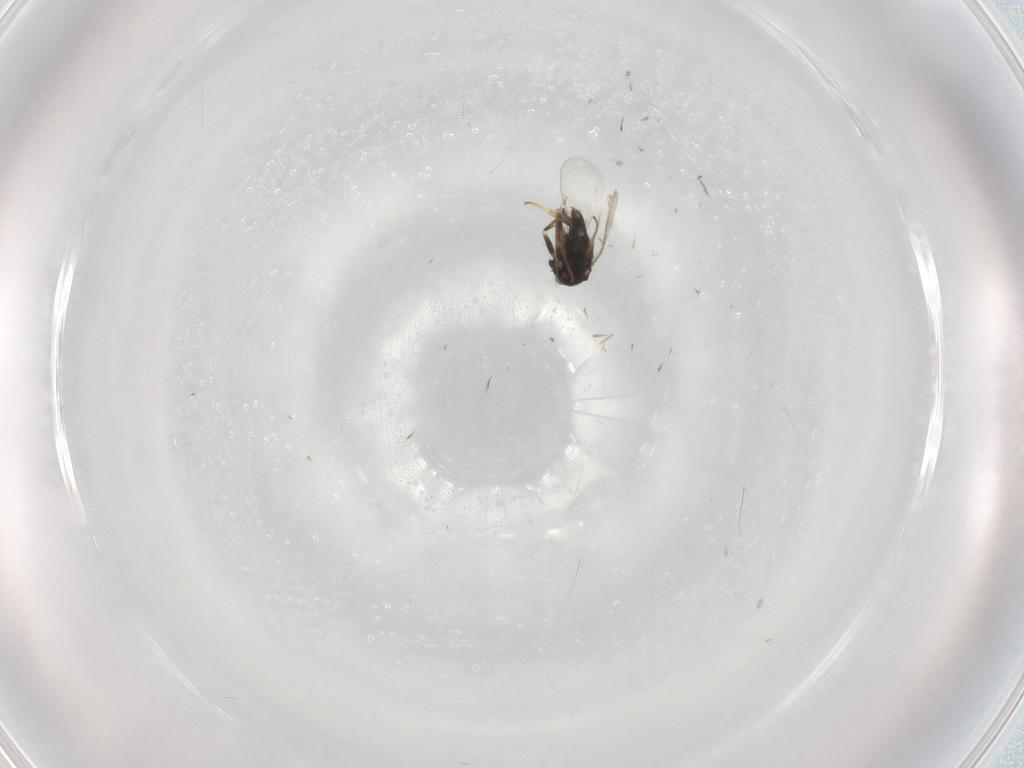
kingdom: Animalia
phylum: Arthropoda
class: Insecta
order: Hymenoptera
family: Encyrtidae
